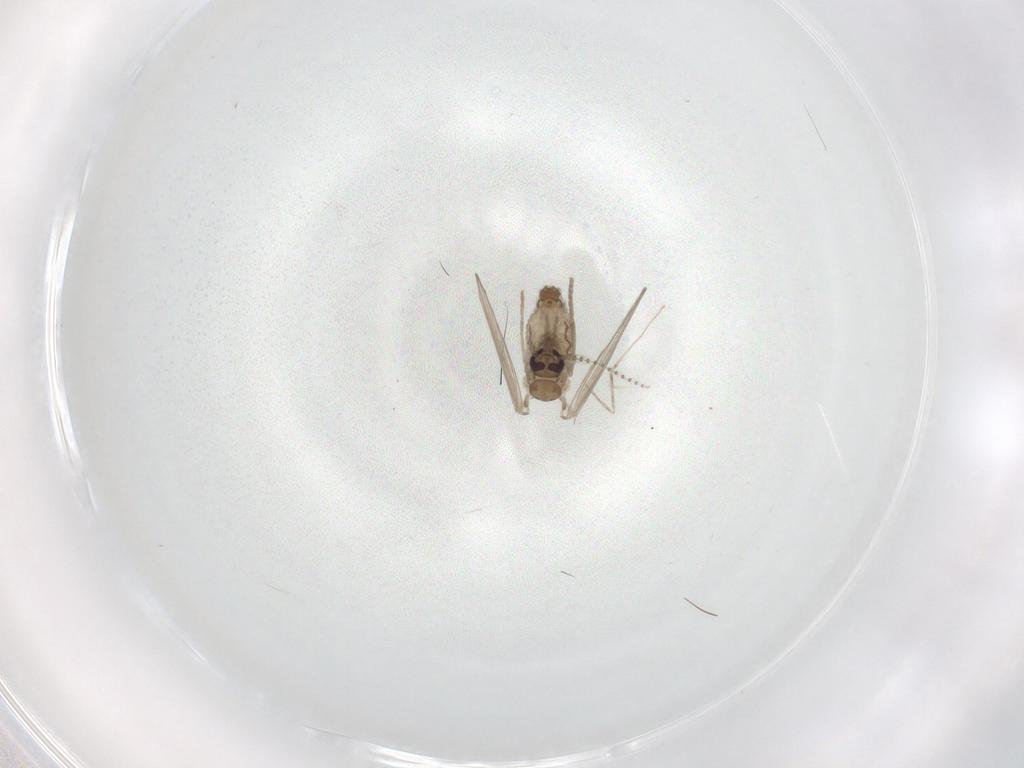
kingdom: Animalia
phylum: Arthropoda
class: Insecta
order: Diptera
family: Psychodidae
